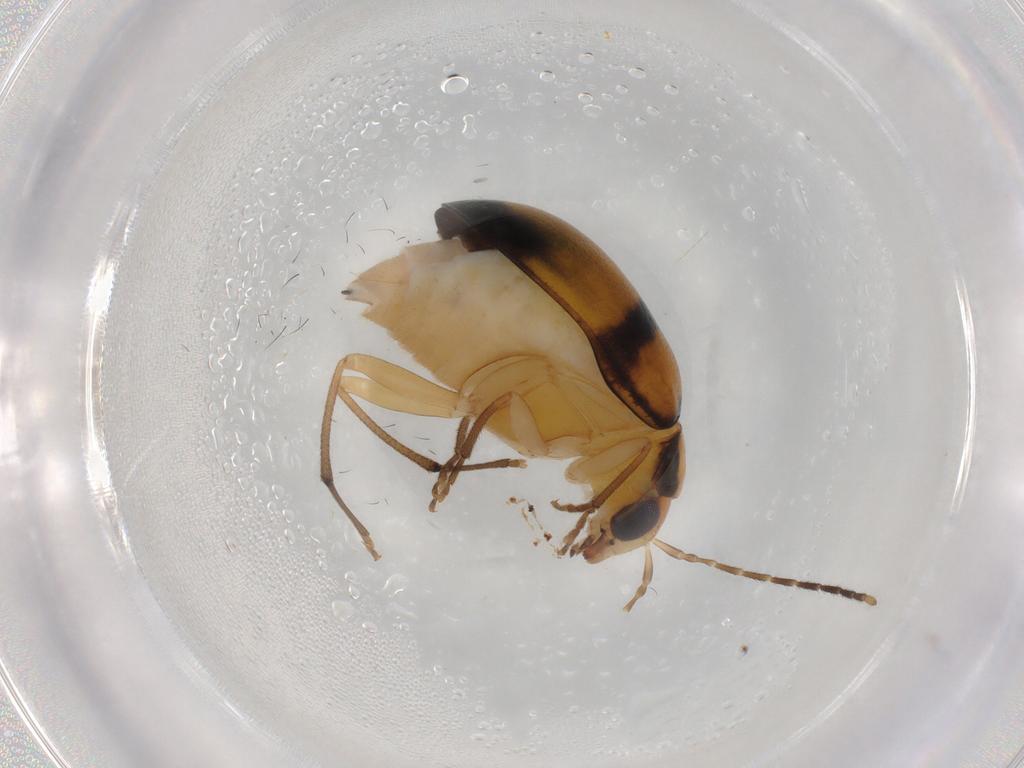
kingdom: Animalia
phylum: Arthropoda
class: Insecta
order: Coleoptera
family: Chrysomelidae
